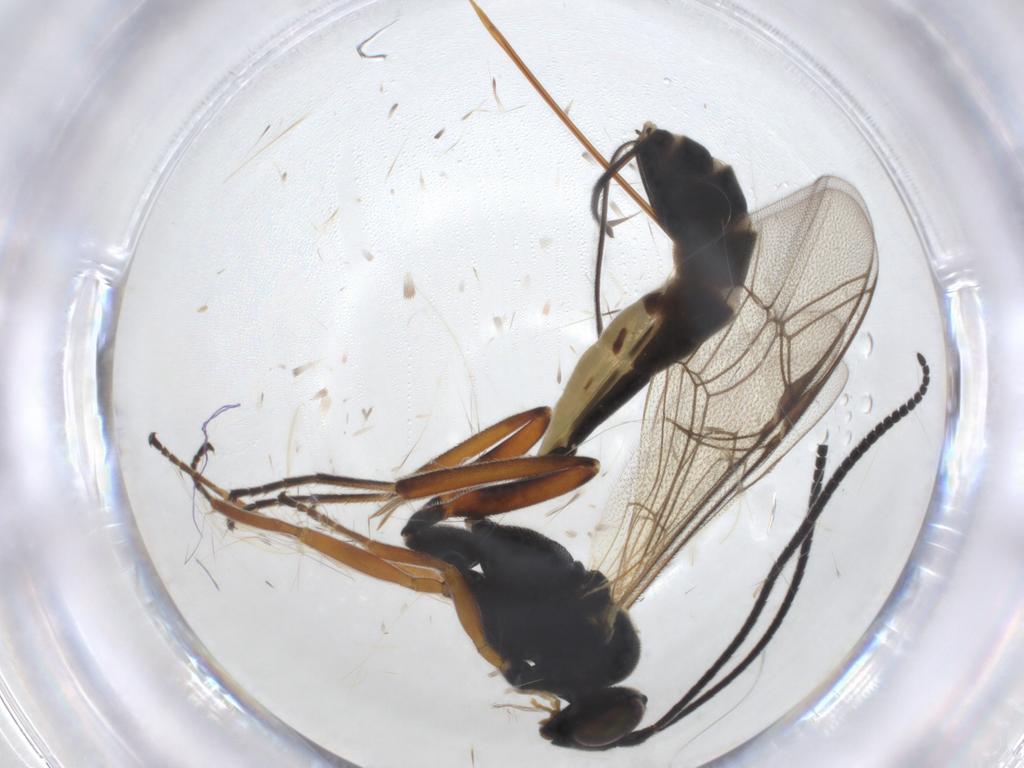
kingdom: Animalia
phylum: Arthropoda
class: Insecta
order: Hymenoptera
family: Ichneumonidae
